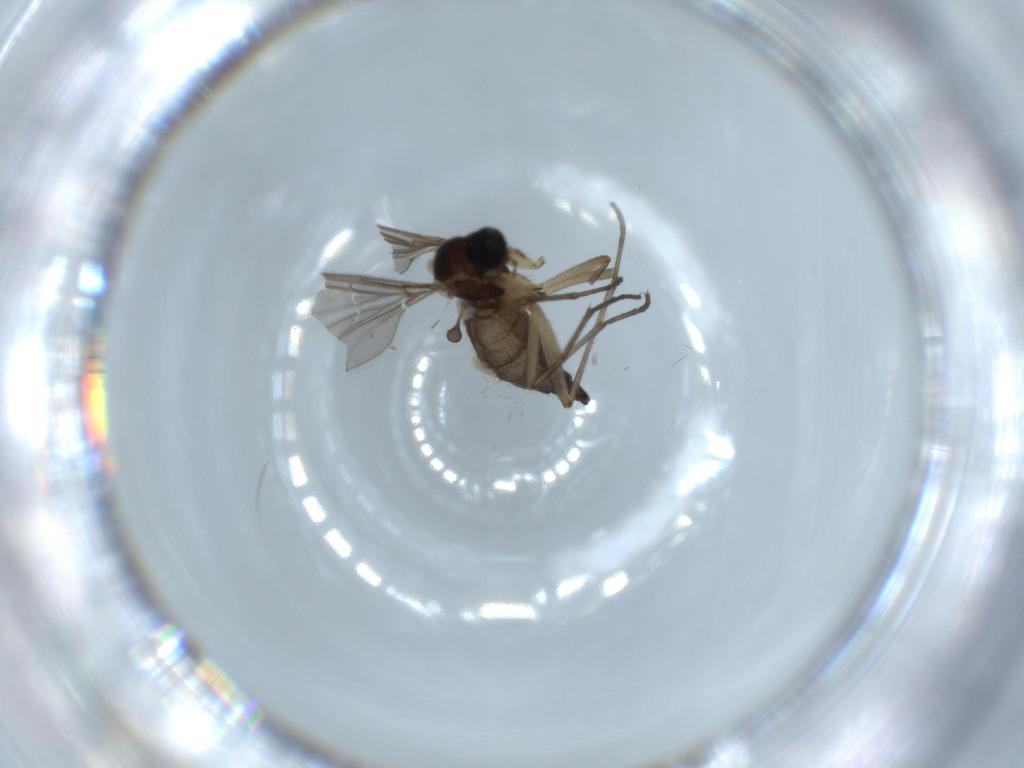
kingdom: Animalia
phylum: Arthropoda
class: Insecta
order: Diptera
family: Sciaridae
